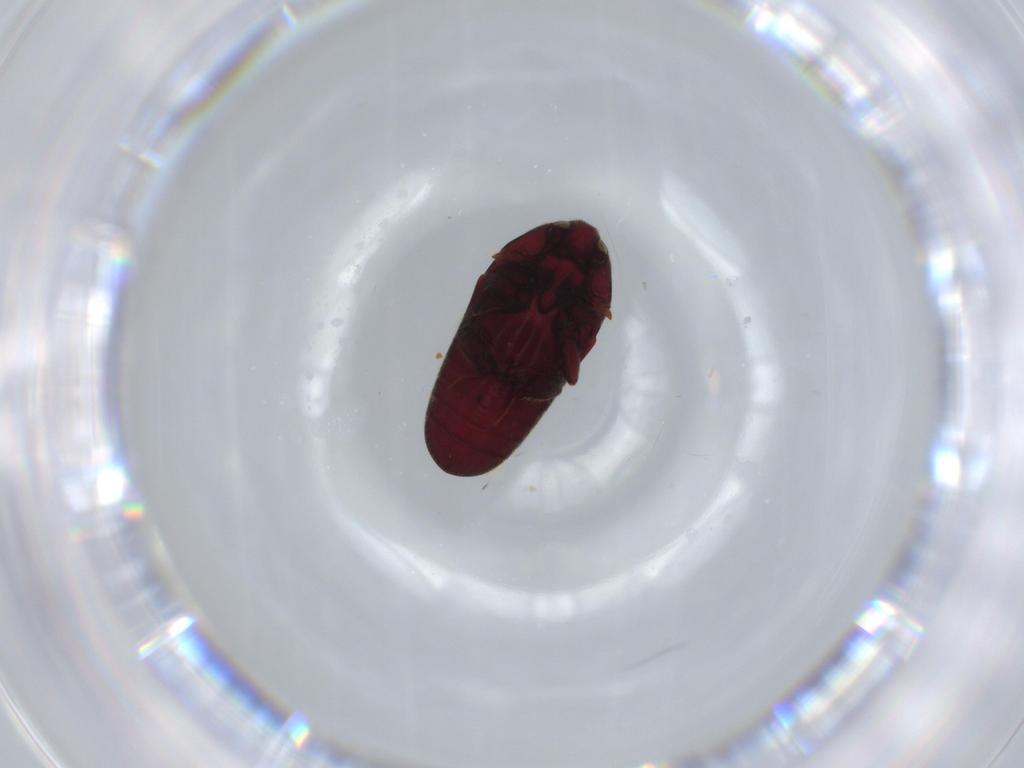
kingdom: Animalia
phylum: Arthropoda
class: Insecta
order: Coleoptera
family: Throscidae
